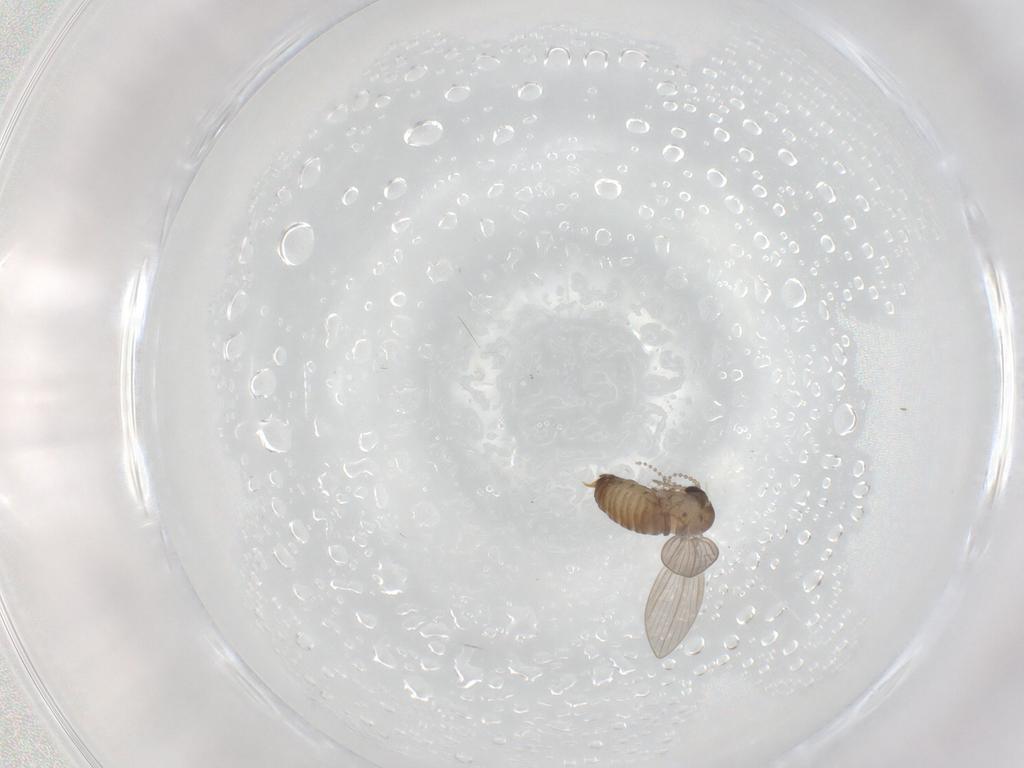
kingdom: Animalia
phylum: Arthropoda
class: Insecta
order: Diptera
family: Psychodidae
